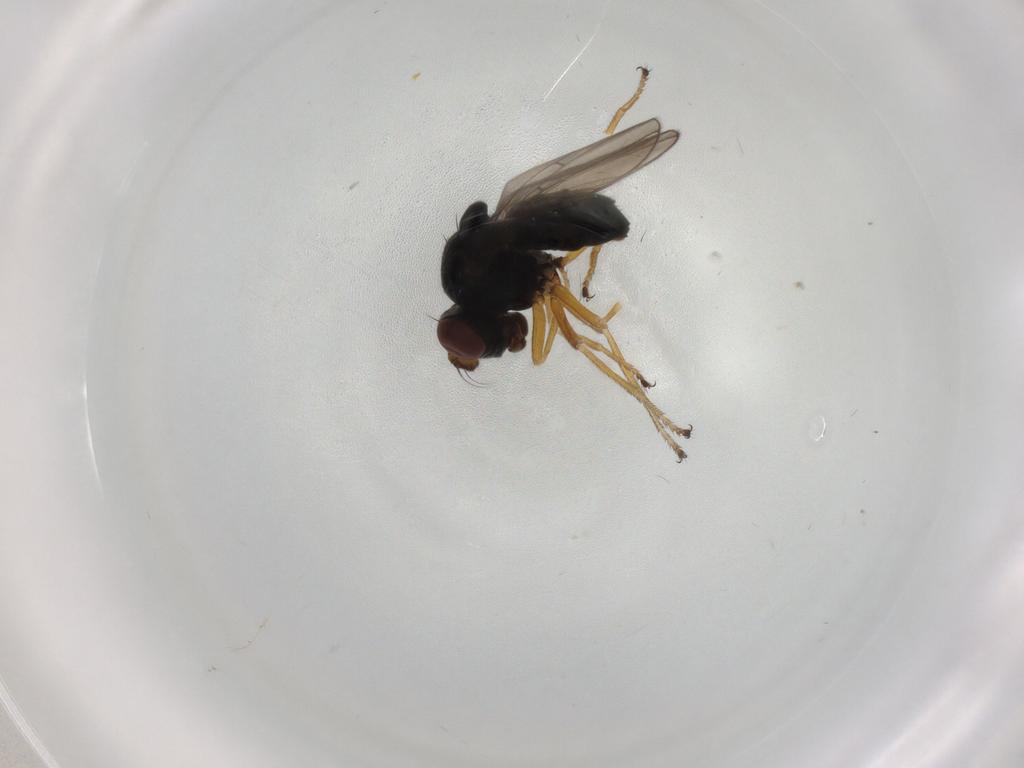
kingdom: Animalia
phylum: Arthropoda
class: Insecta
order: Diptera
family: Ephydridae
